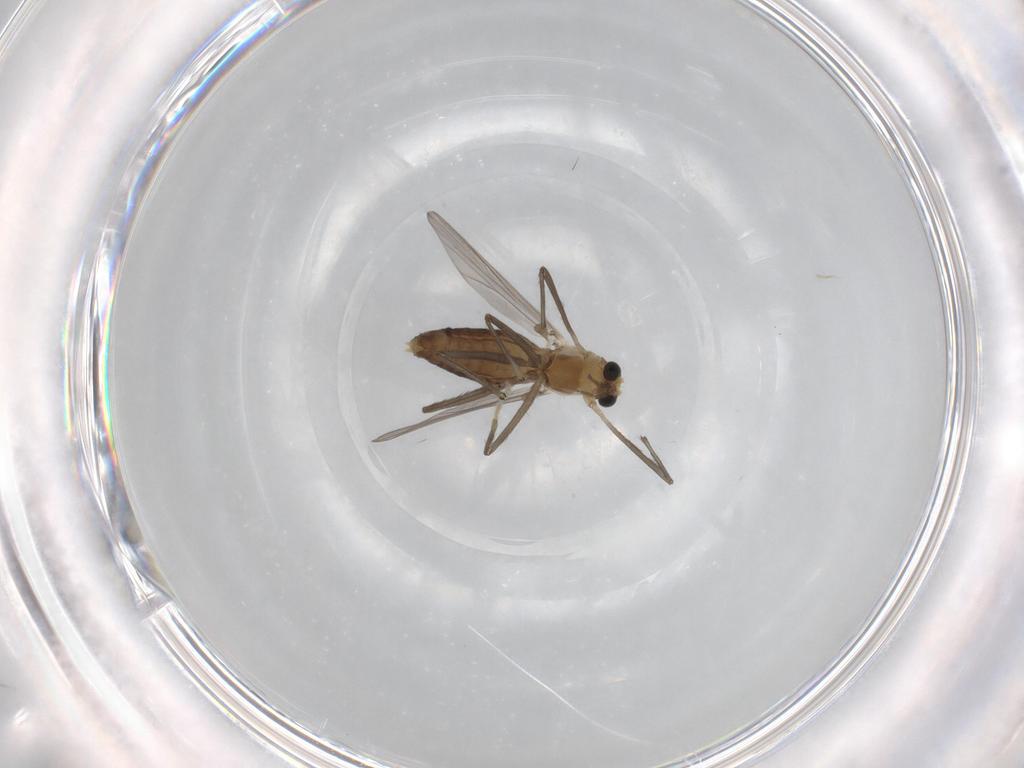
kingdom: Animalia
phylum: Arthropoda
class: Insecta
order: Diptera
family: Chironomidae
